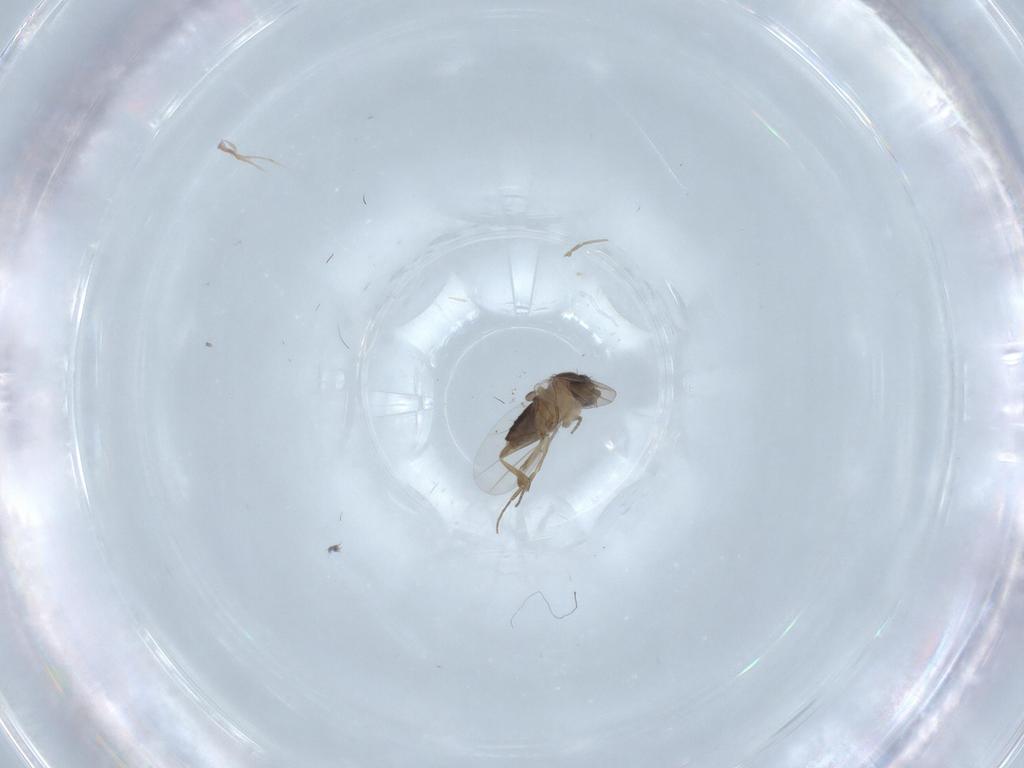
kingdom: Animalia
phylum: Arthropoda
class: Insecta
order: Diptera
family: Phoridae
